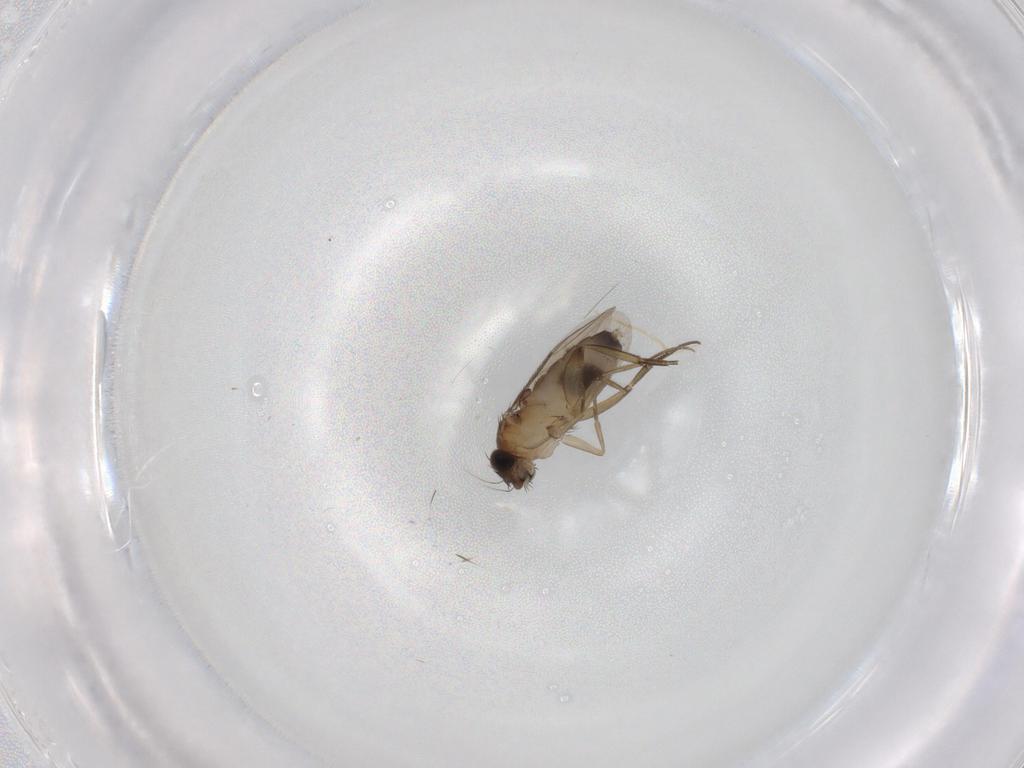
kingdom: Animalia
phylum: Arthropoda
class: Insecta
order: Diptera
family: Phoridae
